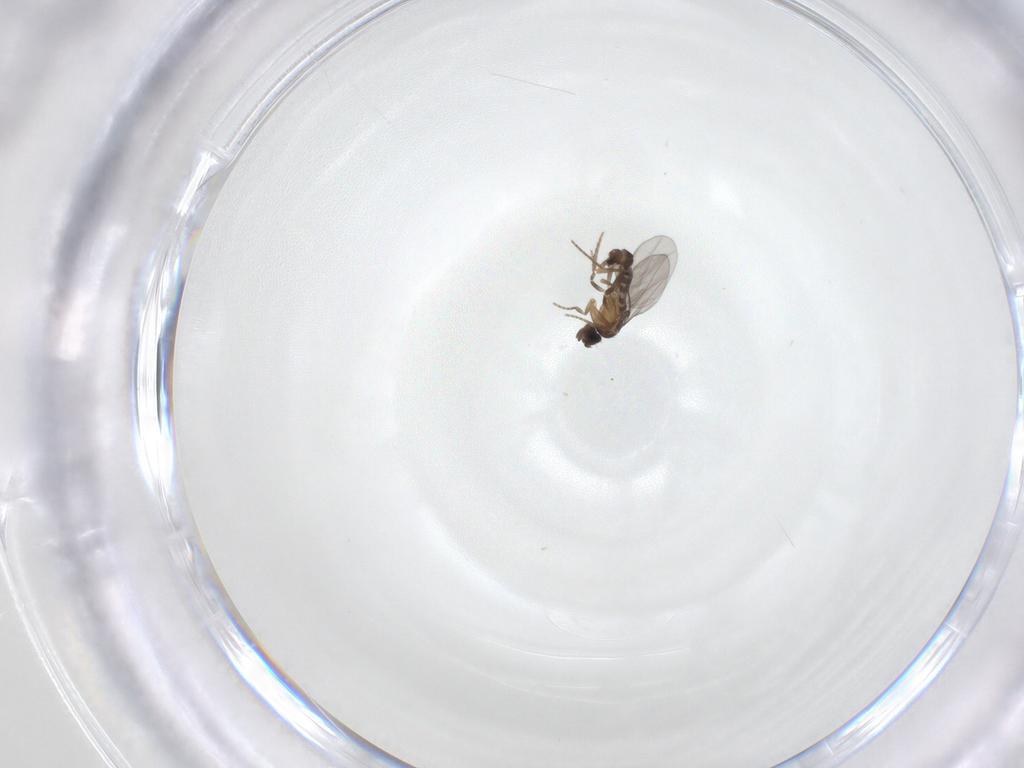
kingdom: Animalia
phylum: Arthropoda
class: Insecta
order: Diptera
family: Phoridae
